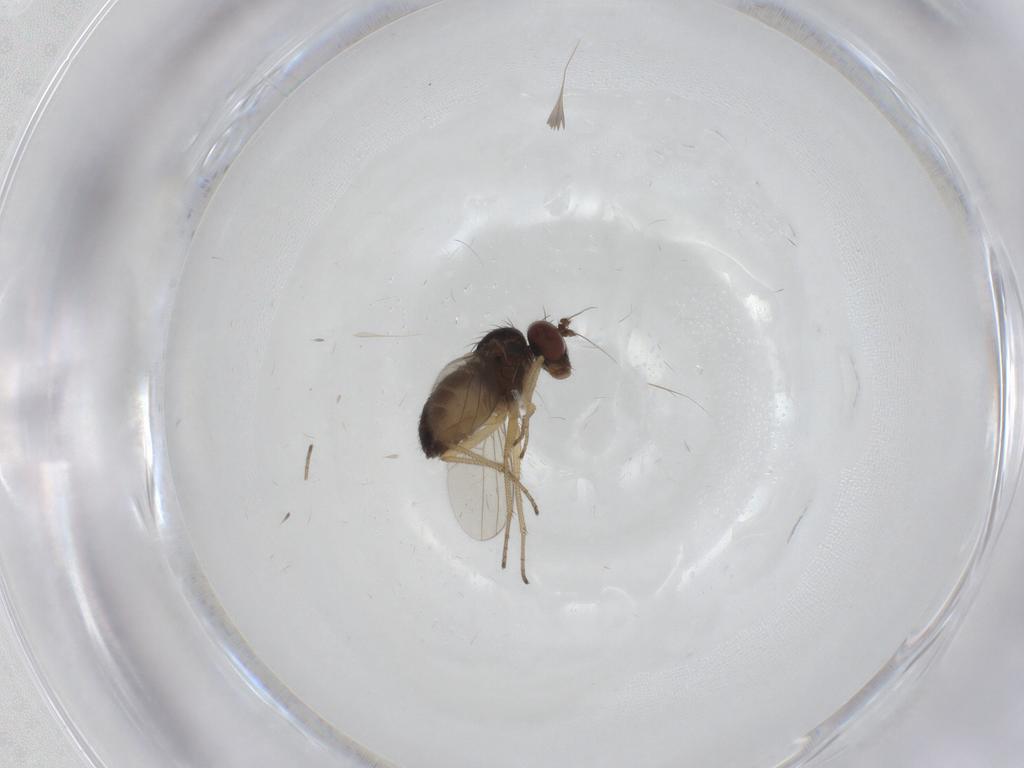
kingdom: Animalia
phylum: Arthropoda
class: Insecta
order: Diptera
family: Dolichopodidae
